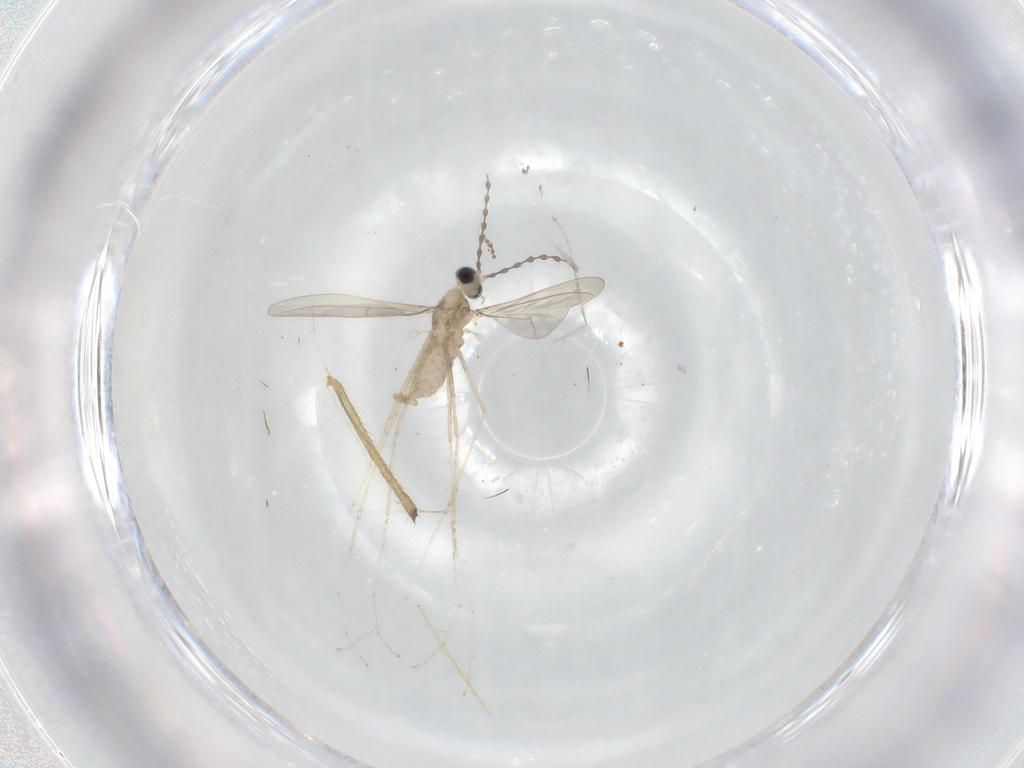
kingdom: Animalia
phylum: Arthropoda
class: Insecta
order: Diptera
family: Cecidomyiidae
